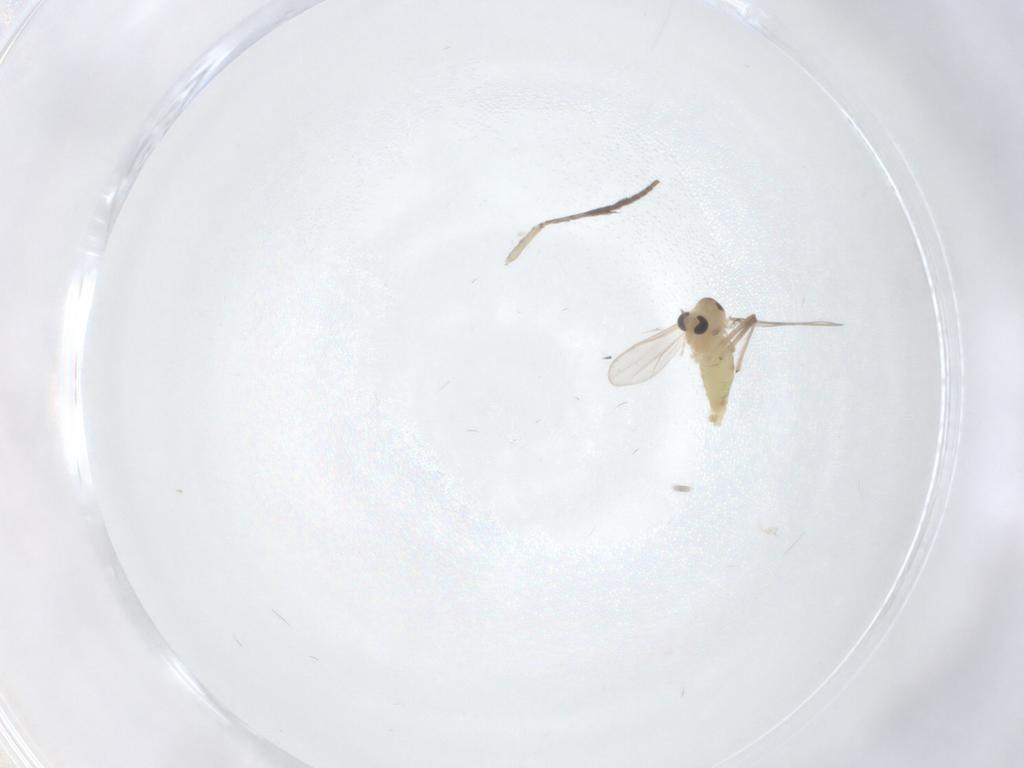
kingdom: Animalia
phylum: Arthropoda
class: Insecta
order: Diptera
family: Chironomidae
